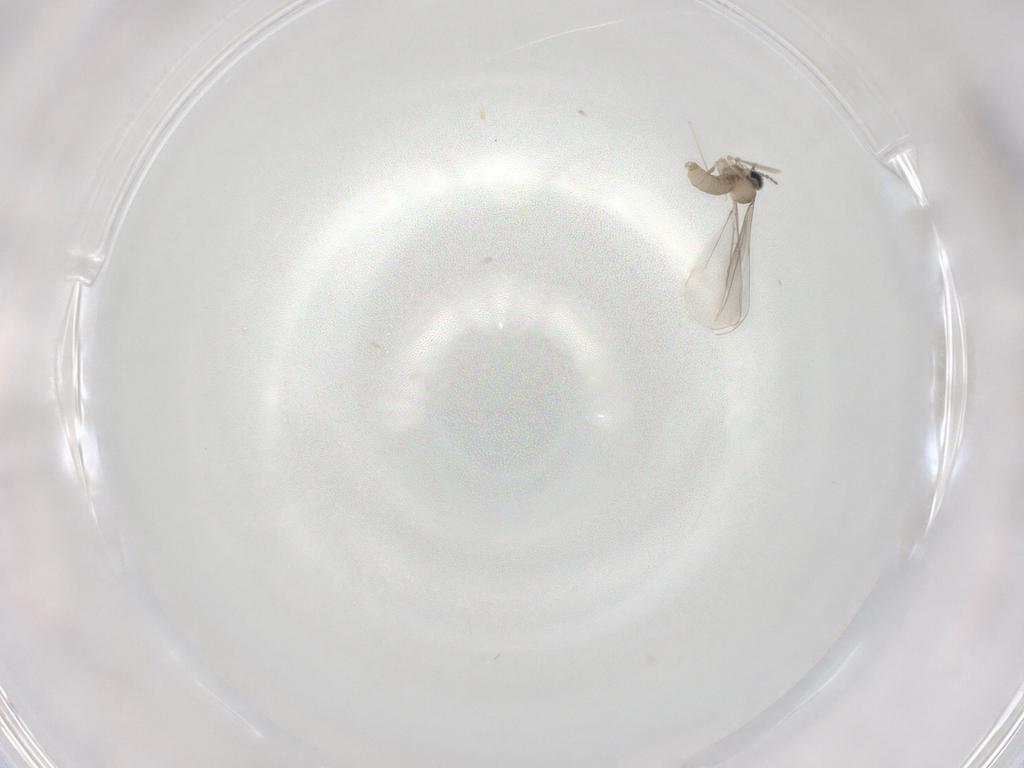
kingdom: Animalia
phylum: Arthropoda
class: Insecta
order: Diptera
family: Cecidomyiidae
